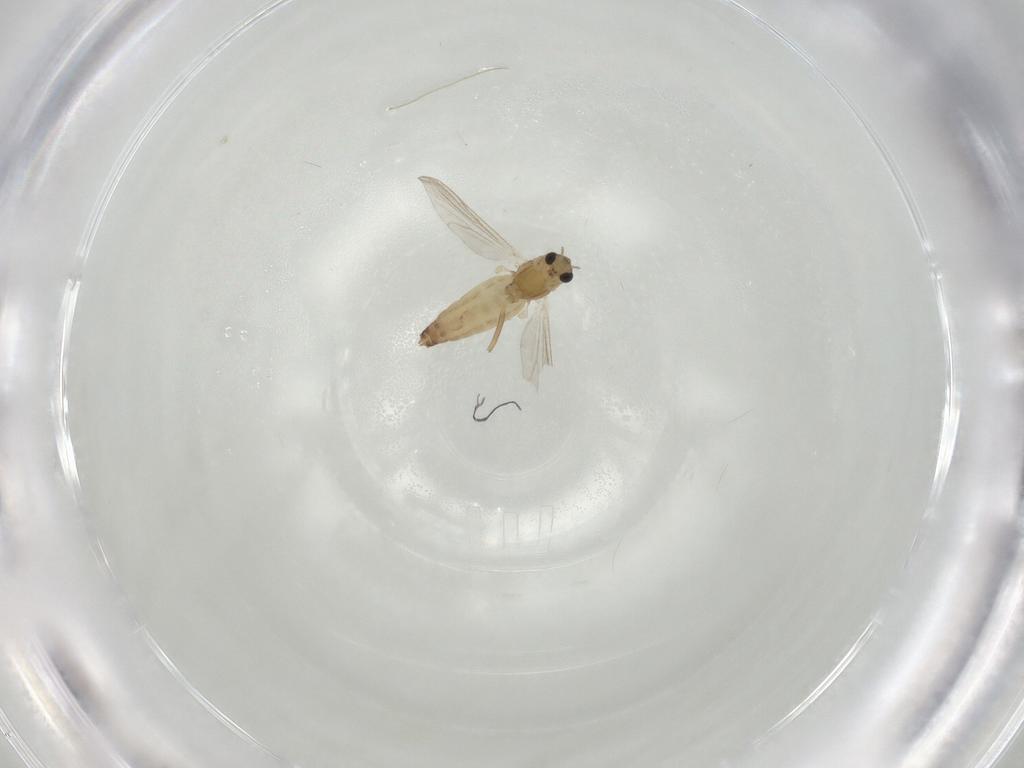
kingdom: Animalia
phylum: Arthropoda
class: Insecta
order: Diptera
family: Chironomidae
